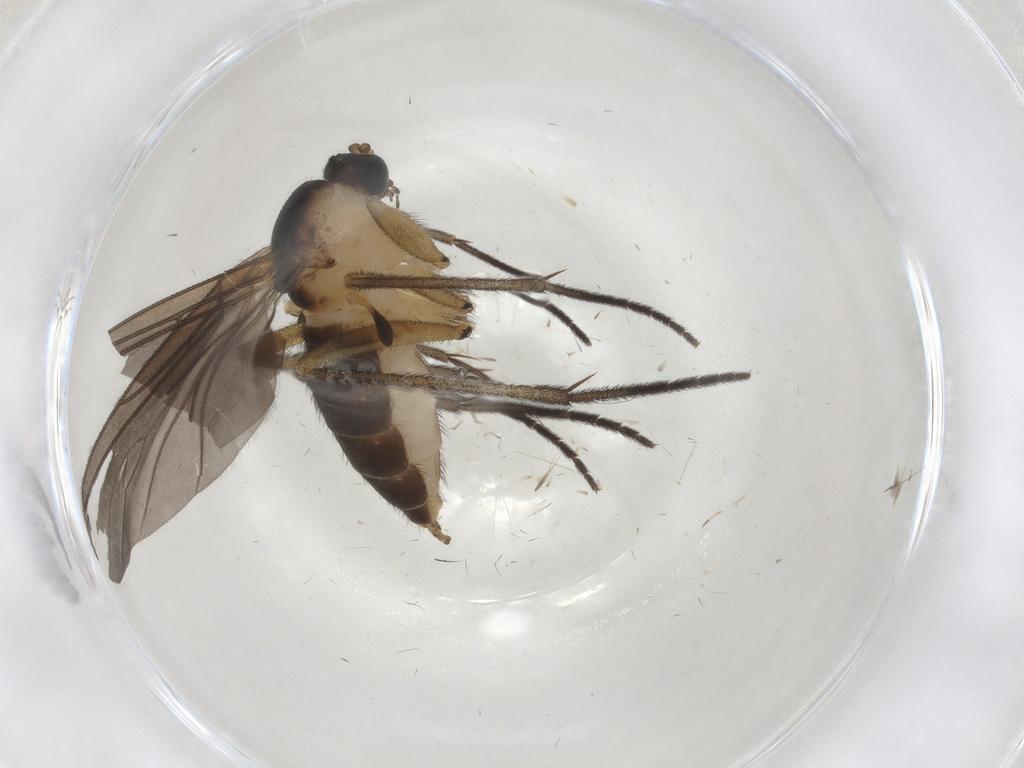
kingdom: Animalia
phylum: Arthropoda
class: Insecta
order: Diptera
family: Sciaridae
